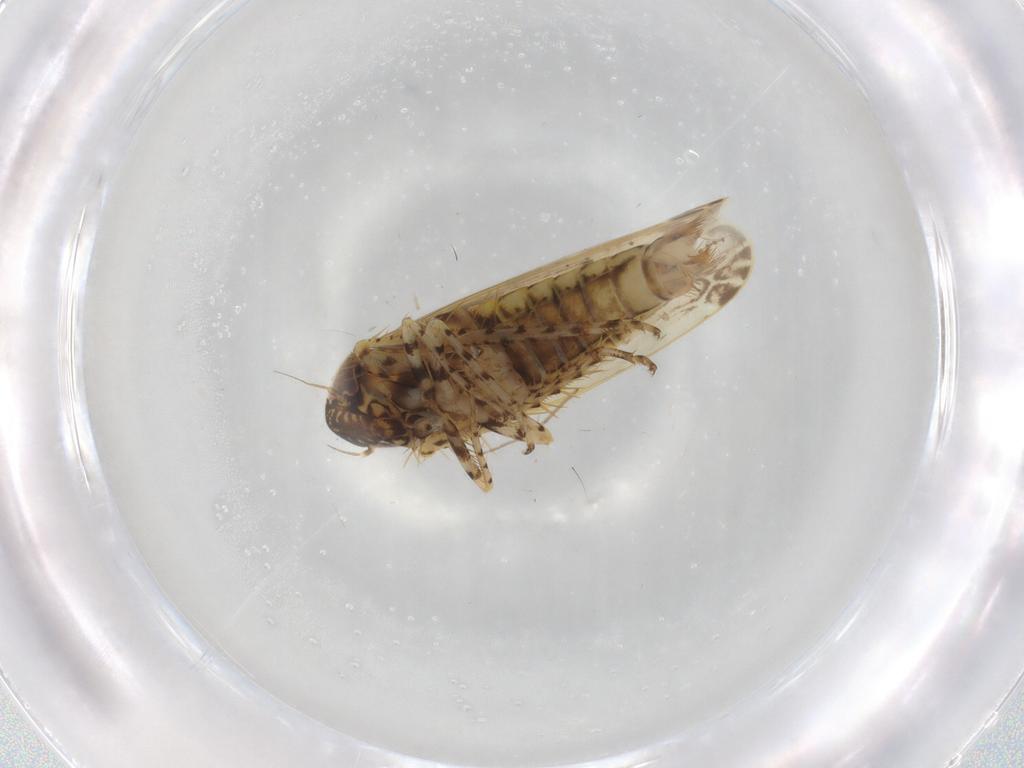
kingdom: Animalia
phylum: Arthropoda
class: Insecta
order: Hemiptera
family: Cicadellidae
